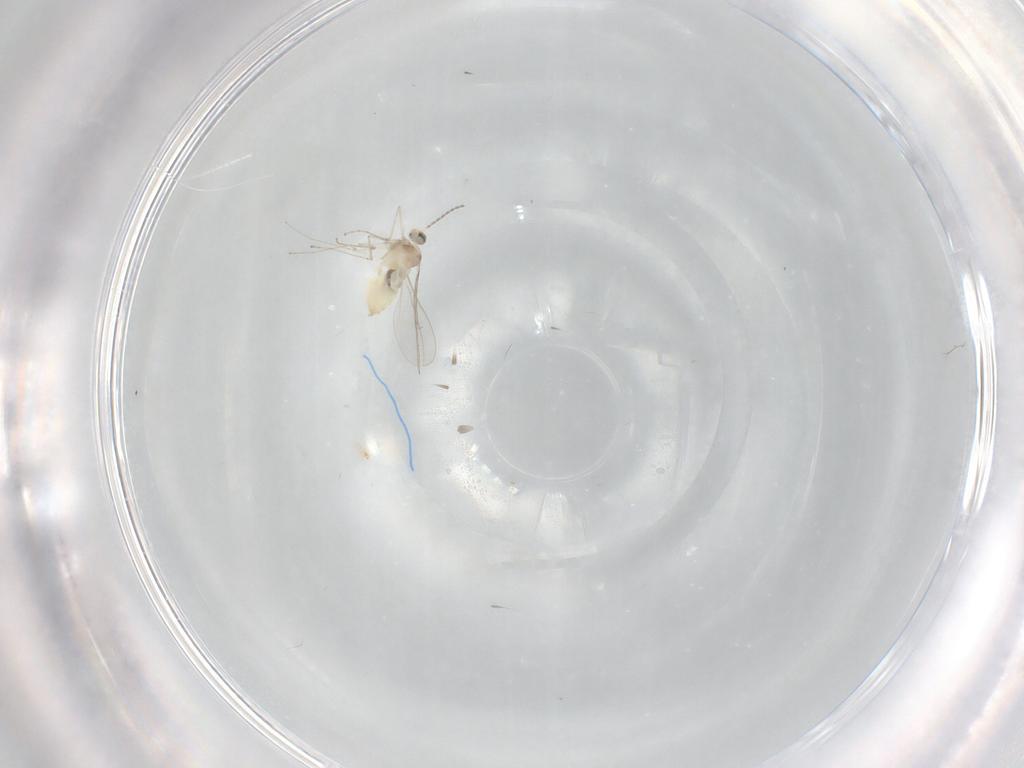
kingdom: Animalia
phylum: Arthropoda
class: Insecta
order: Diptera
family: Cecidomyiidae
